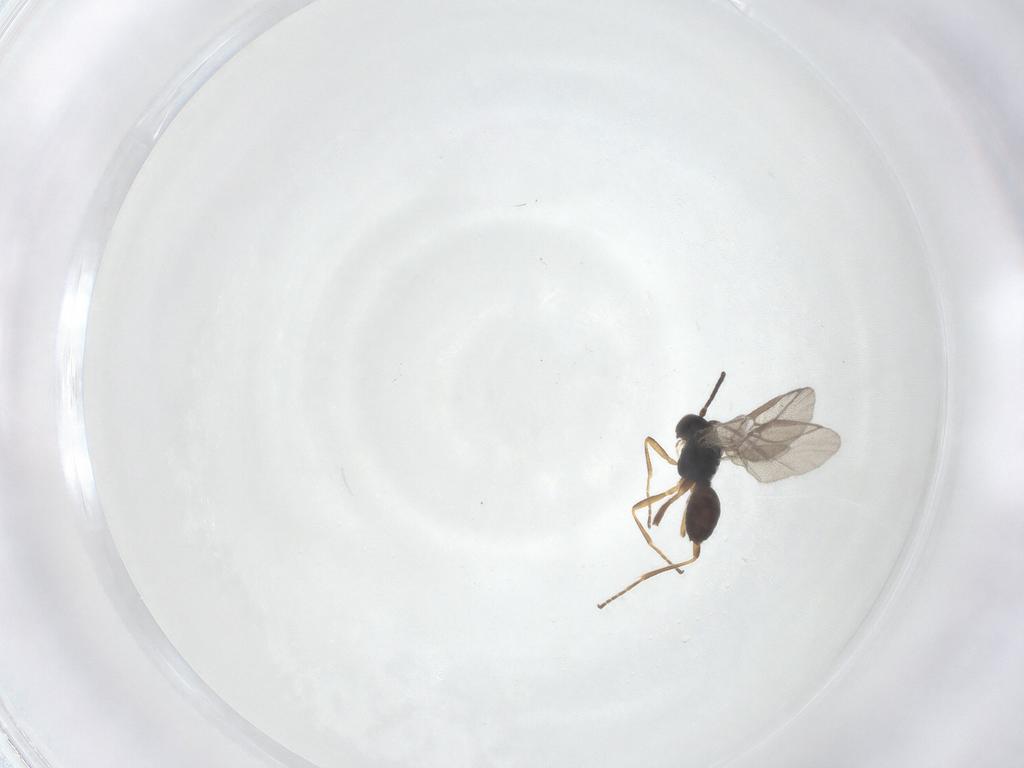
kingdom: Animalia
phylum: Arthropoda
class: Insecta
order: Hymenoptera
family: Braconidae
